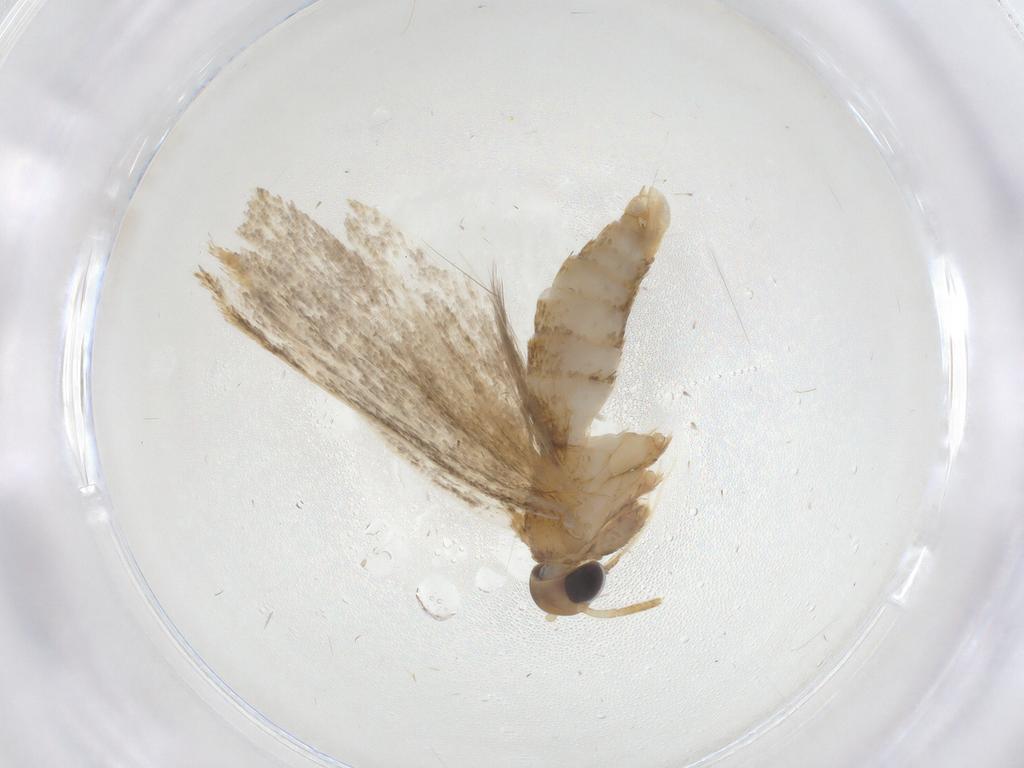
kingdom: Animalia
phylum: Arthropoda
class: Insecta
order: Lepidoptera
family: Oecophoridae
